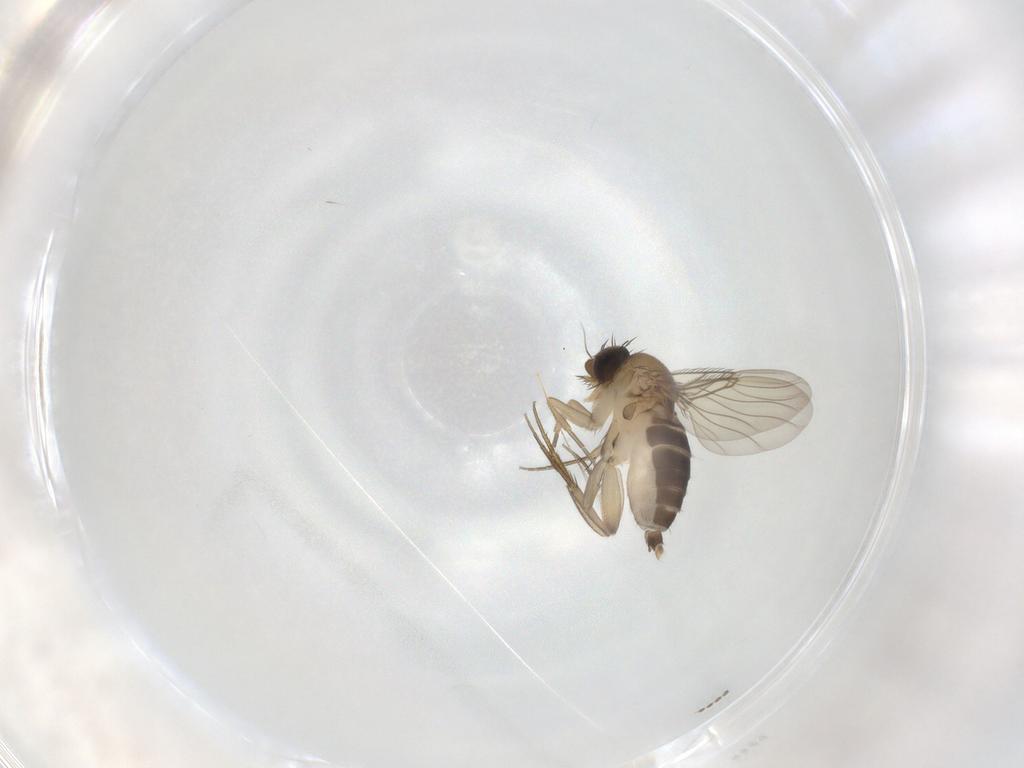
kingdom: Animalia
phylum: Arthropoda
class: Insecta
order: Diptera
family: Phoridae
